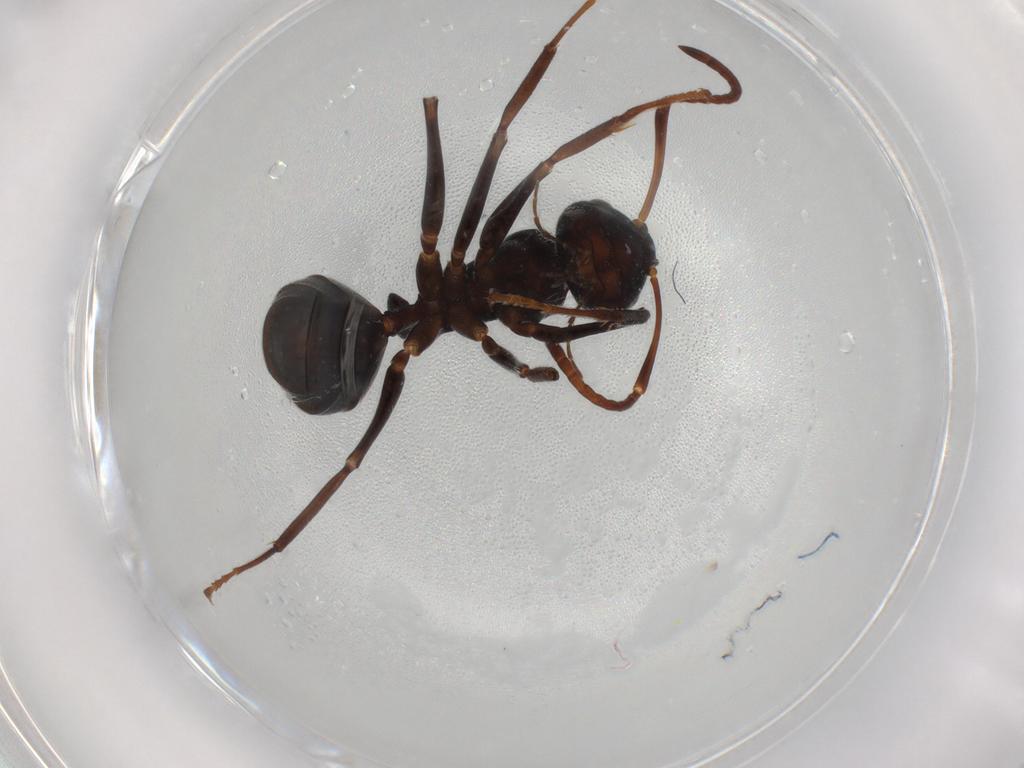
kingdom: Animalia
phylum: Arthropoda
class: Insecta
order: Hymenoptera
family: Formicidae
